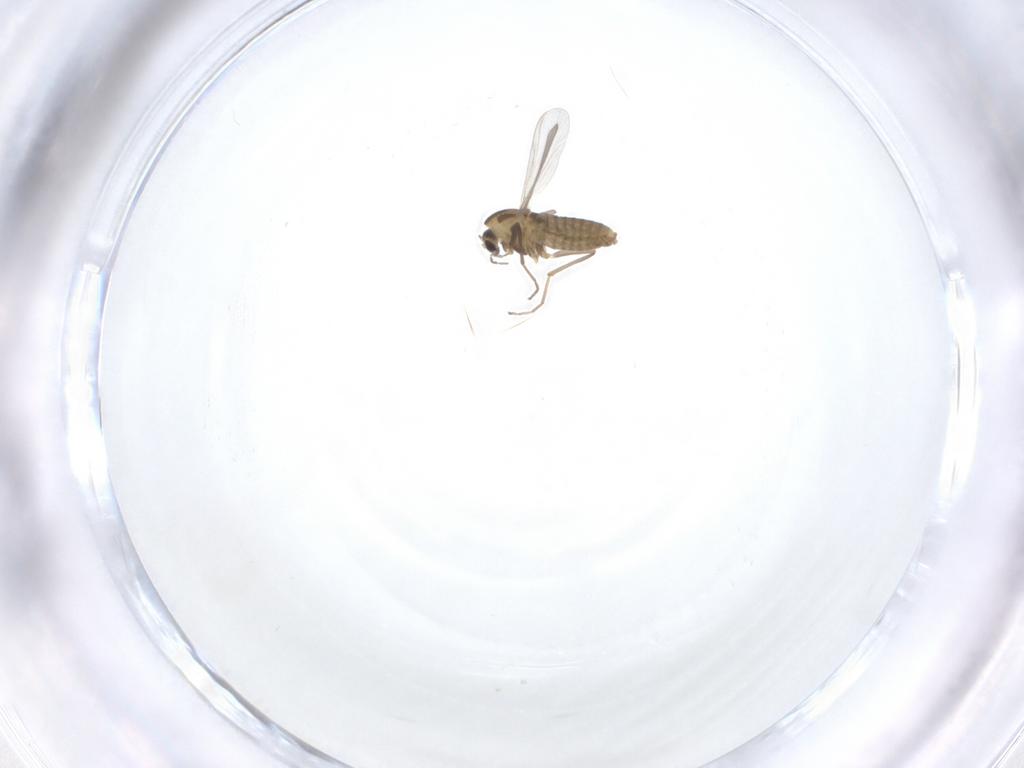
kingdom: Animalia
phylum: Arthropoda
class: Insecta
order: Diptera
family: Chironomidae
